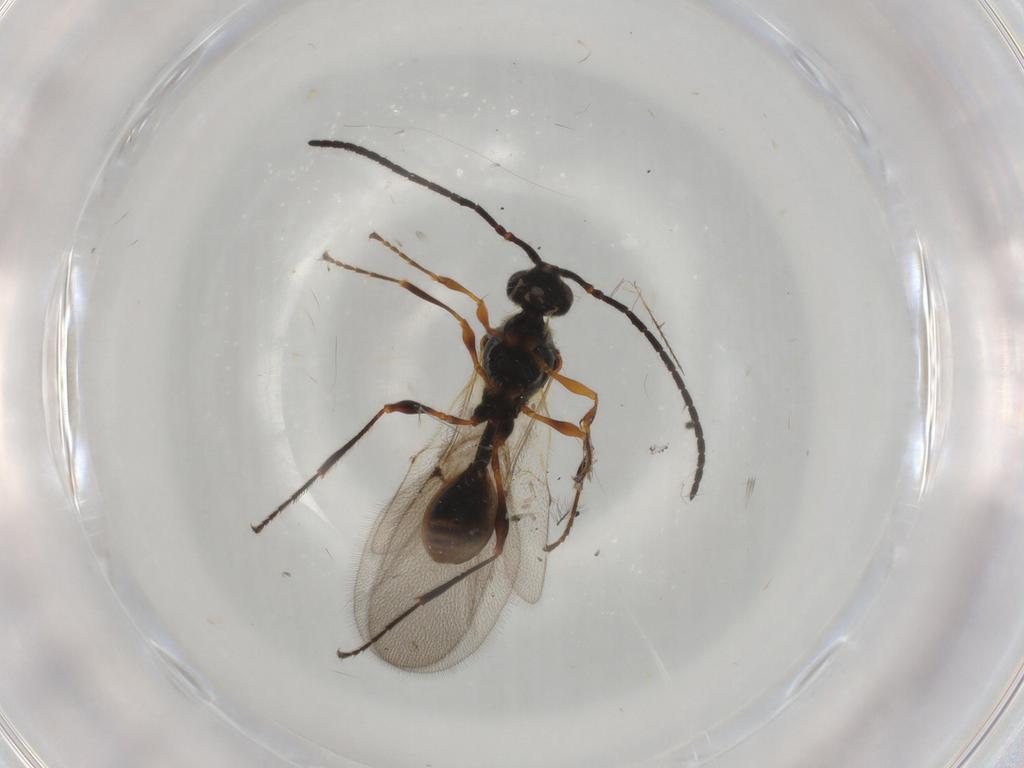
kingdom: Animalia
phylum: Arthropoda
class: Insecta
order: Hymenoptera
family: Diapriidae
